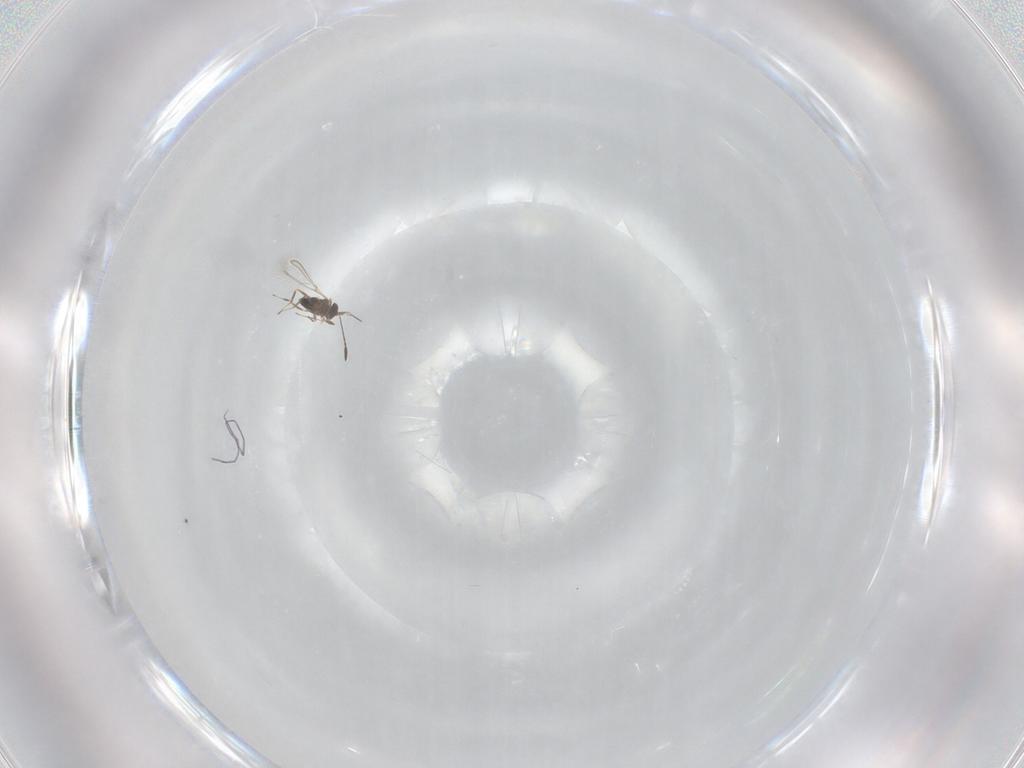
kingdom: Animalia
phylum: Arthropoda
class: Insecta
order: Hymenoptera
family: Mymaridae
